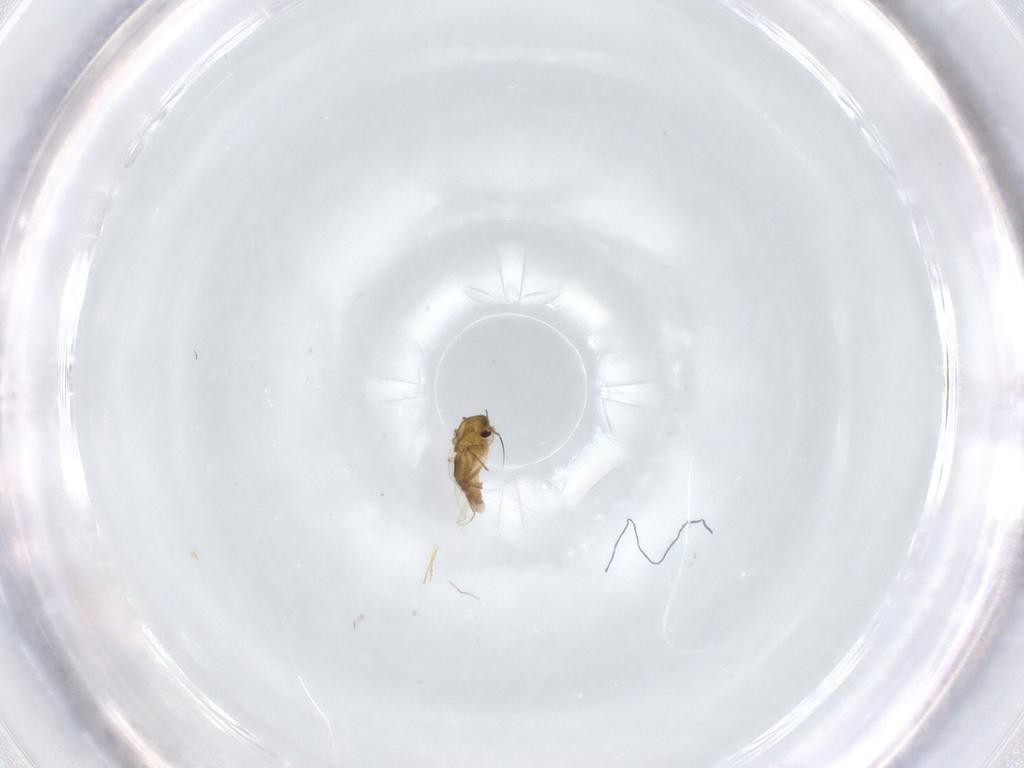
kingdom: Animalia
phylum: Arthropoda
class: Insecta
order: Diptera
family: Chironomidae
